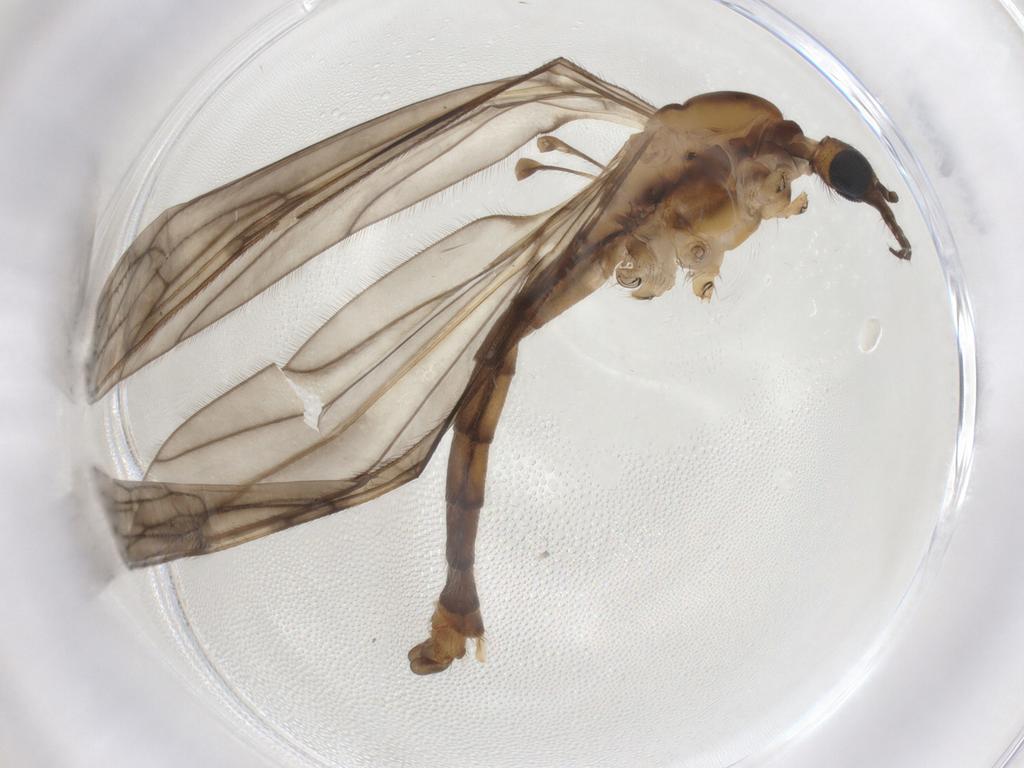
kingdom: Animalia
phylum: Arthropoda
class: Insecta
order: Diptera
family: Limoniidae
